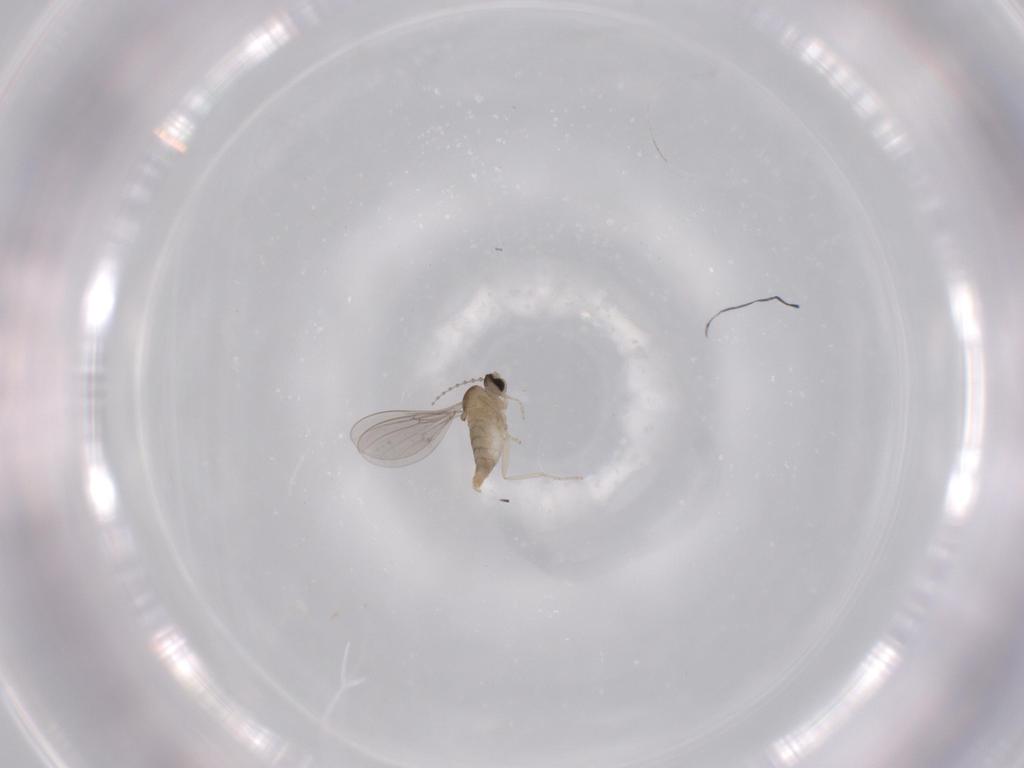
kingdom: Animalia
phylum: Arthropoda
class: Insecta
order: Diptera
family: Cecidomyiidae
